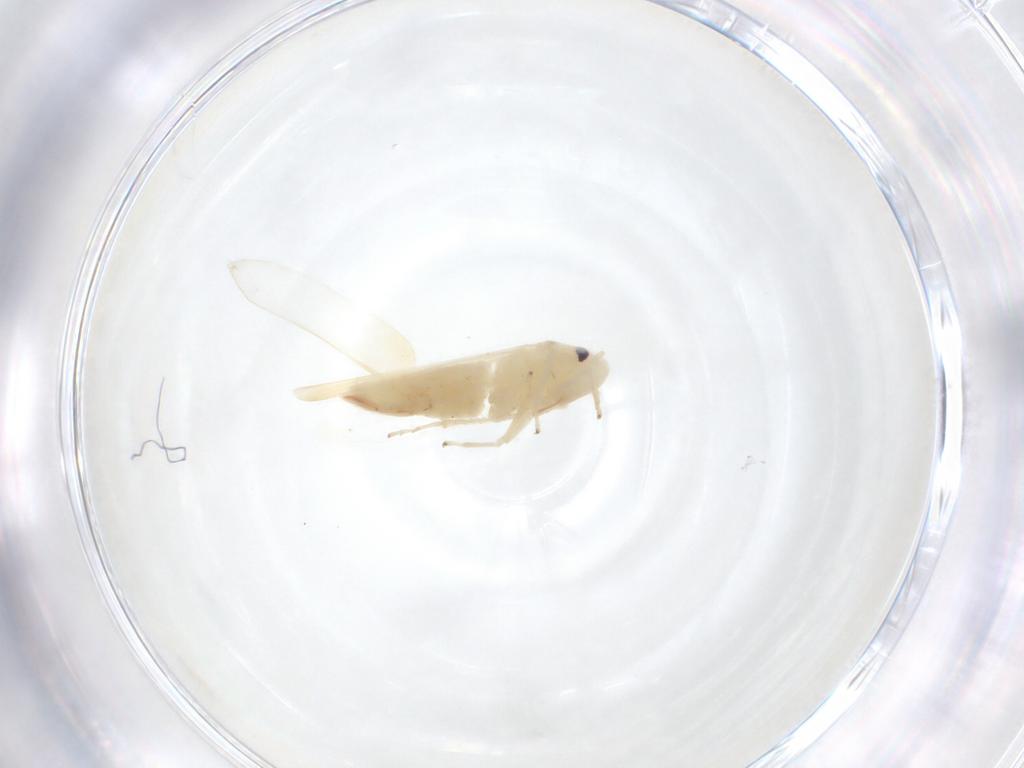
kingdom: Animalia
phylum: Arthropoda
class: Insecta
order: Hemiptera
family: Cicadellidae
